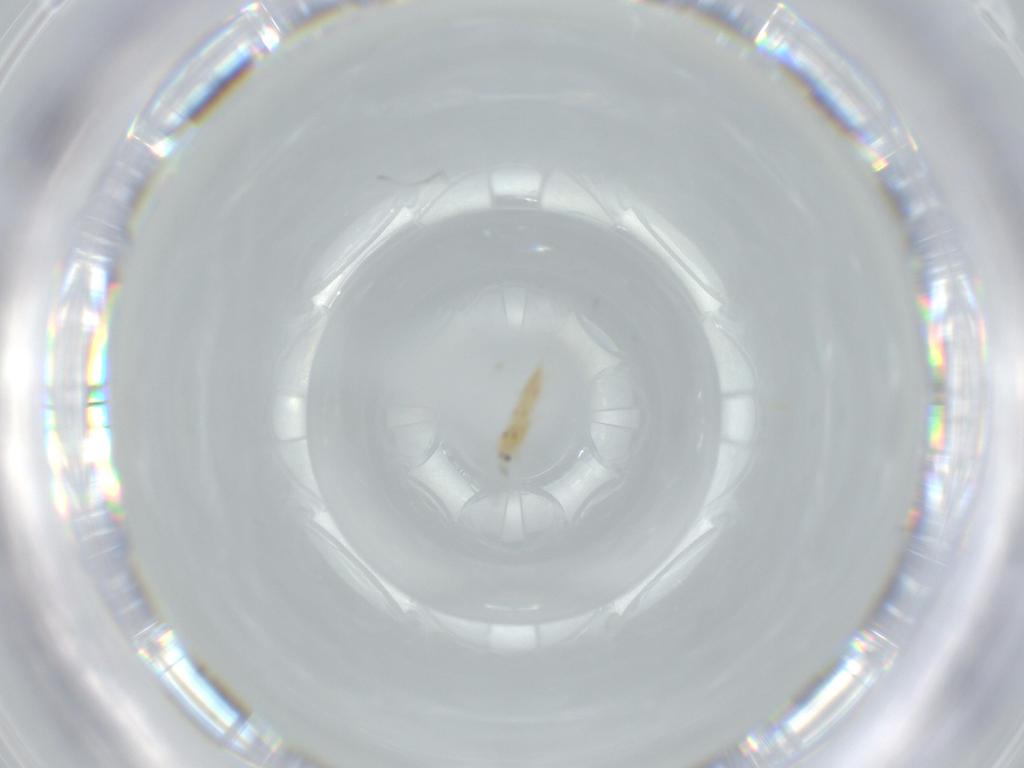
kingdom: Animalia
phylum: Arthropoda
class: Insecta
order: Thysanoptera
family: Thripidae
